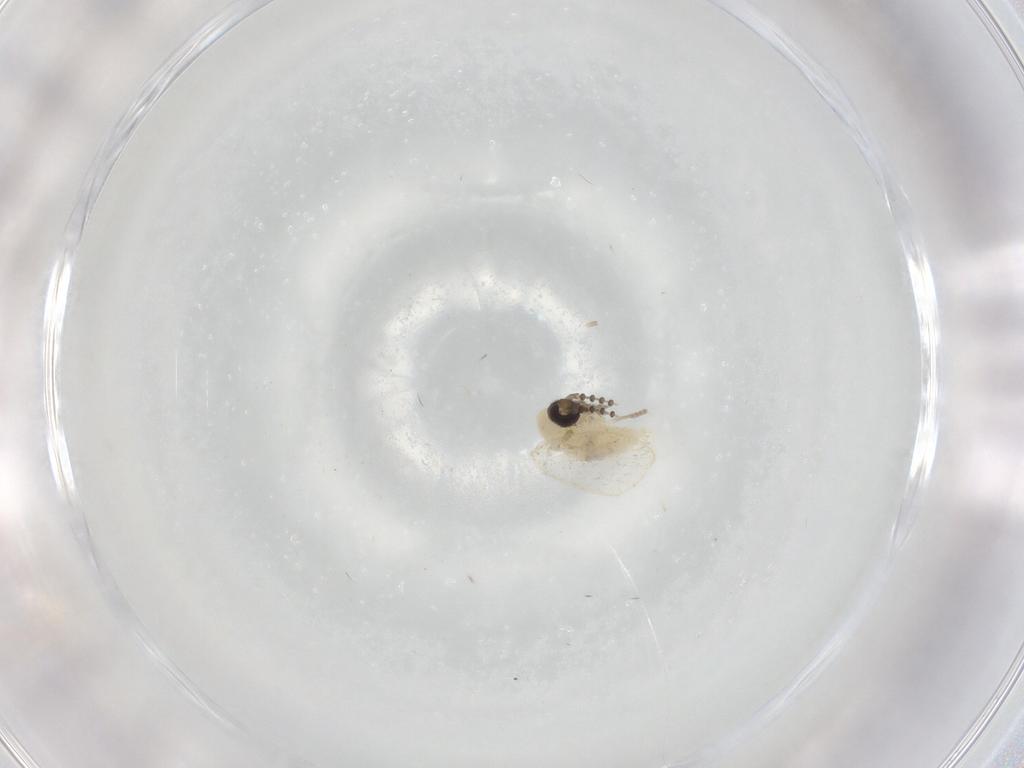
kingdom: Animalia
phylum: Arthropoda
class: Insecta
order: Diptera
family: Psychodidae
